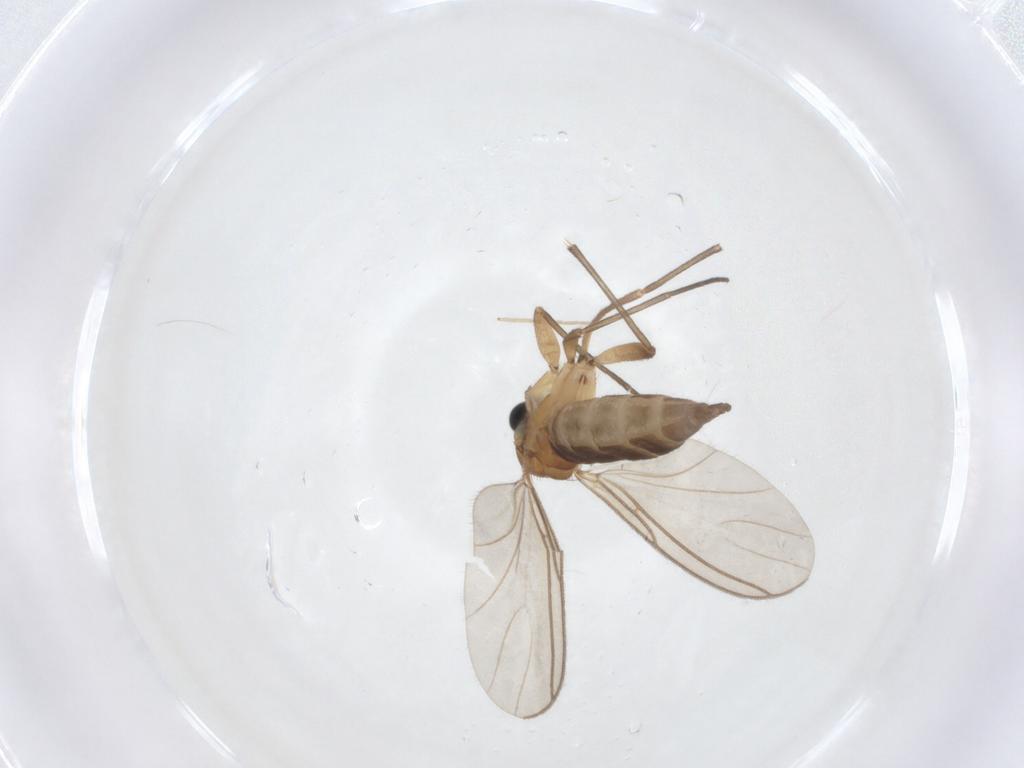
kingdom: Animalia
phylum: Arthropoda
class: Insecta
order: Diptera
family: Sciaridae
